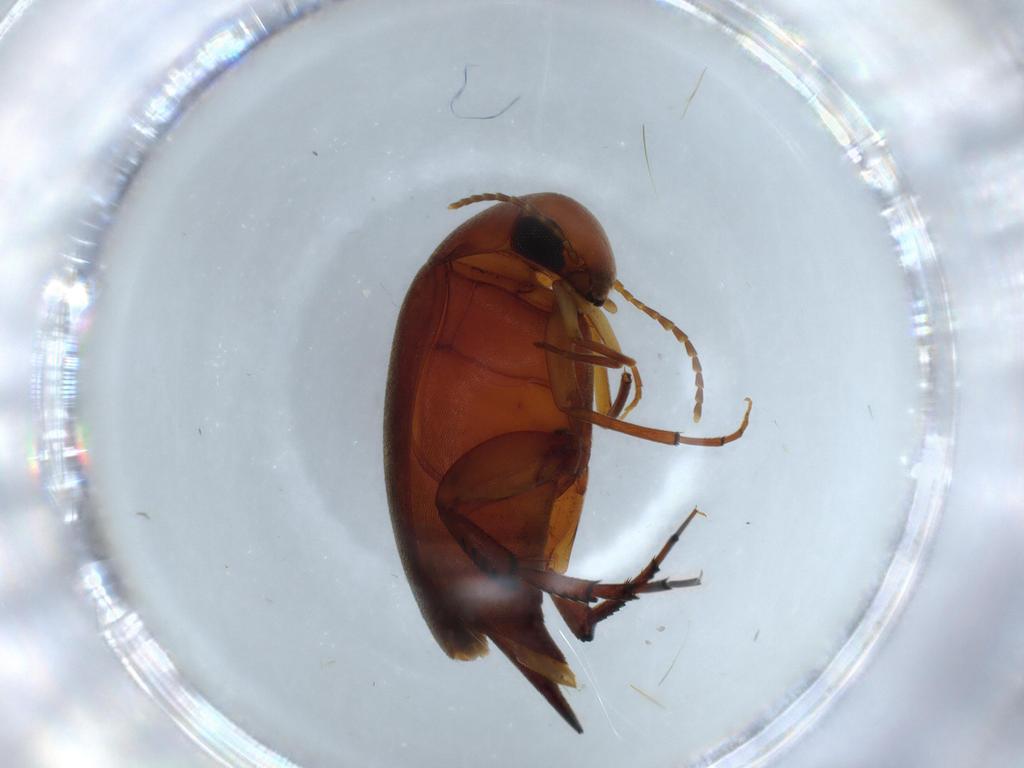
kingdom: Animalia
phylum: Arthropoda
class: Insecta
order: Coleoptera
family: Mordellidae
